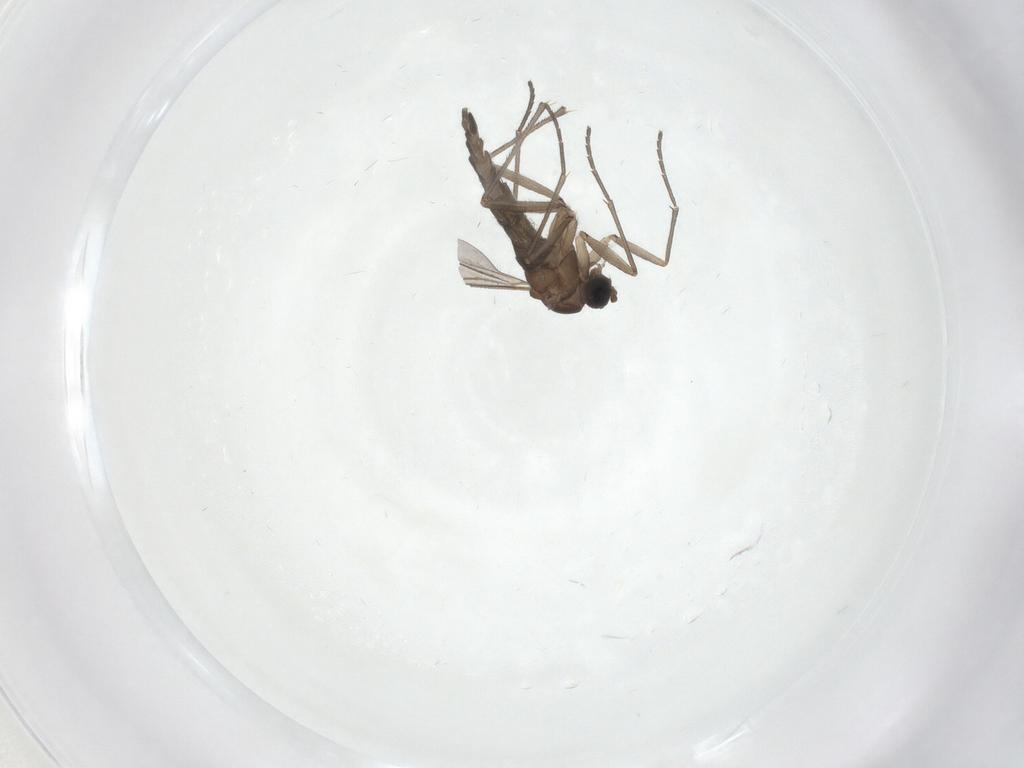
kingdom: Animalia
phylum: Arthropoda
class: Insecta
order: Diptera
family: Sciaridae
